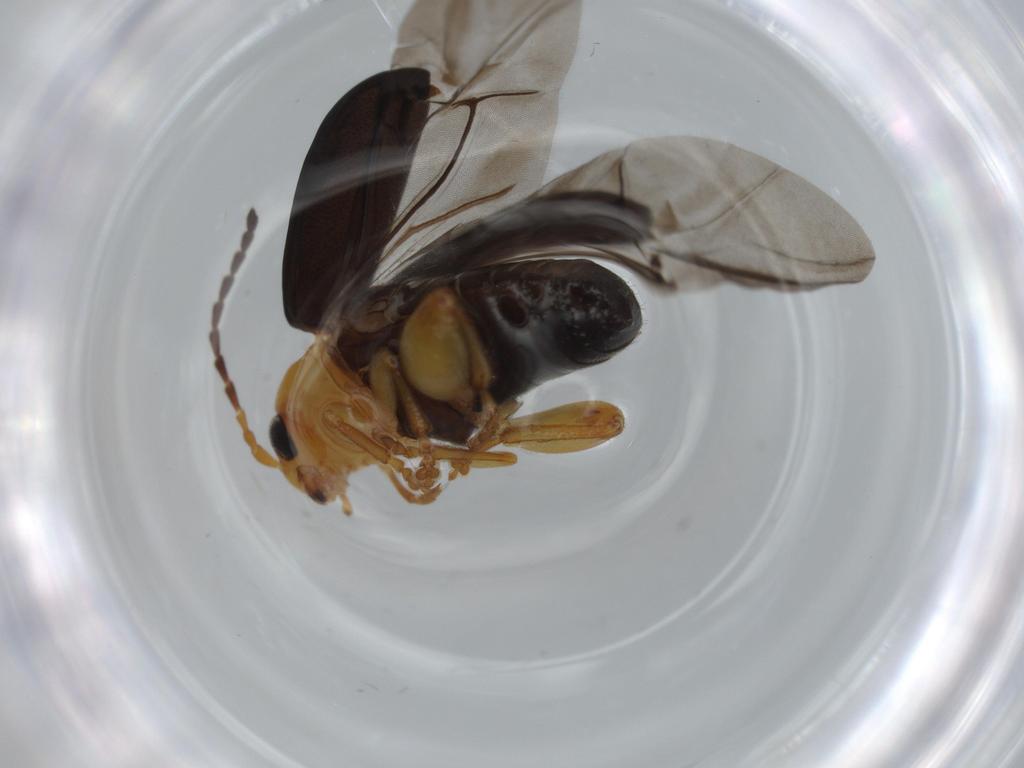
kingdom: Animalia
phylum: Arthropoda
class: Insecta
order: Coleoptera
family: Chrysomelidae
